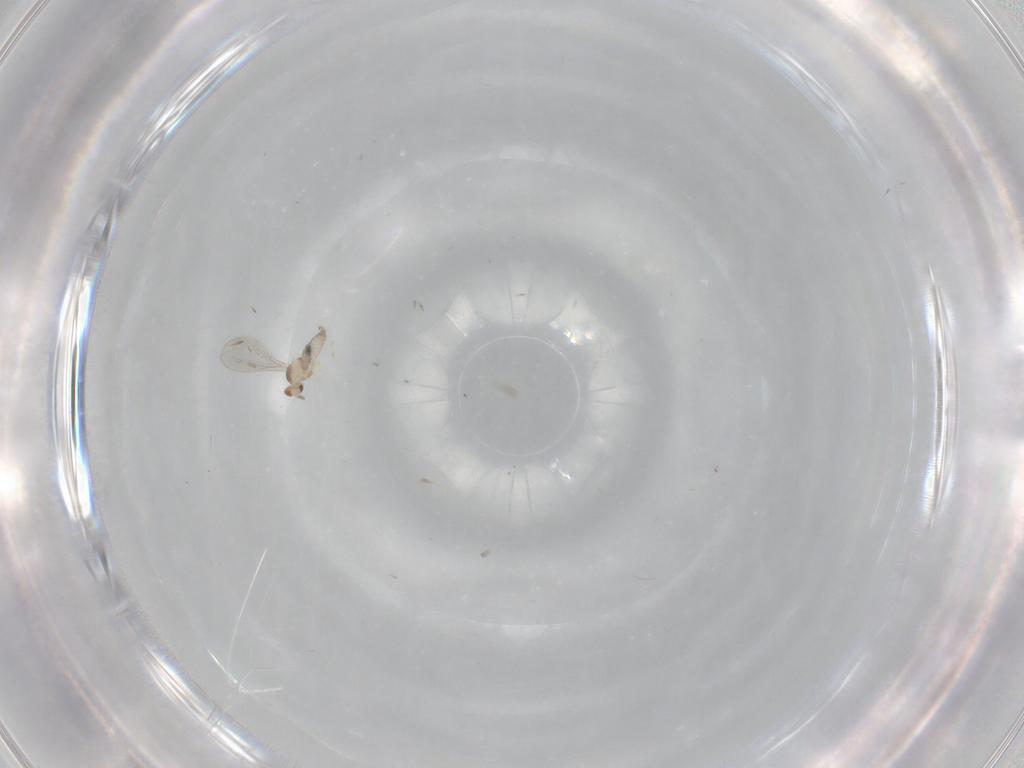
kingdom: Animalia
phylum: Arthropoda
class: Insecta
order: Diptera
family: Cecidomyiidae
